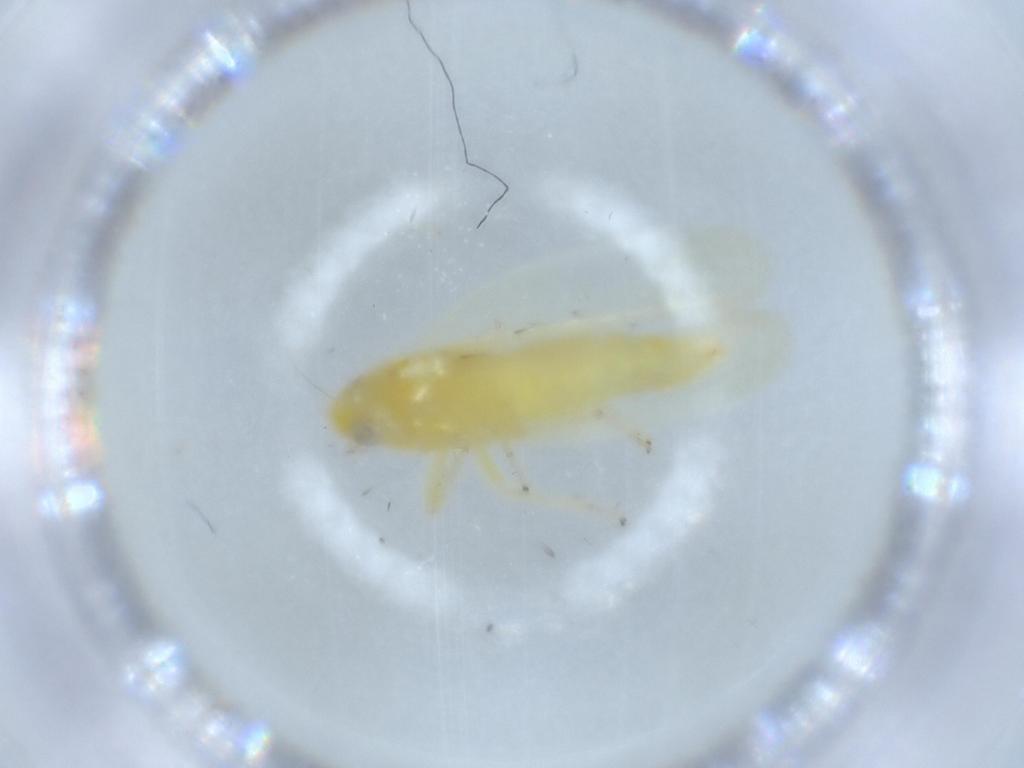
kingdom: Animalia
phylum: Arthropoda
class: Insecta
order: Hemiptera
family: Cicadellidae
